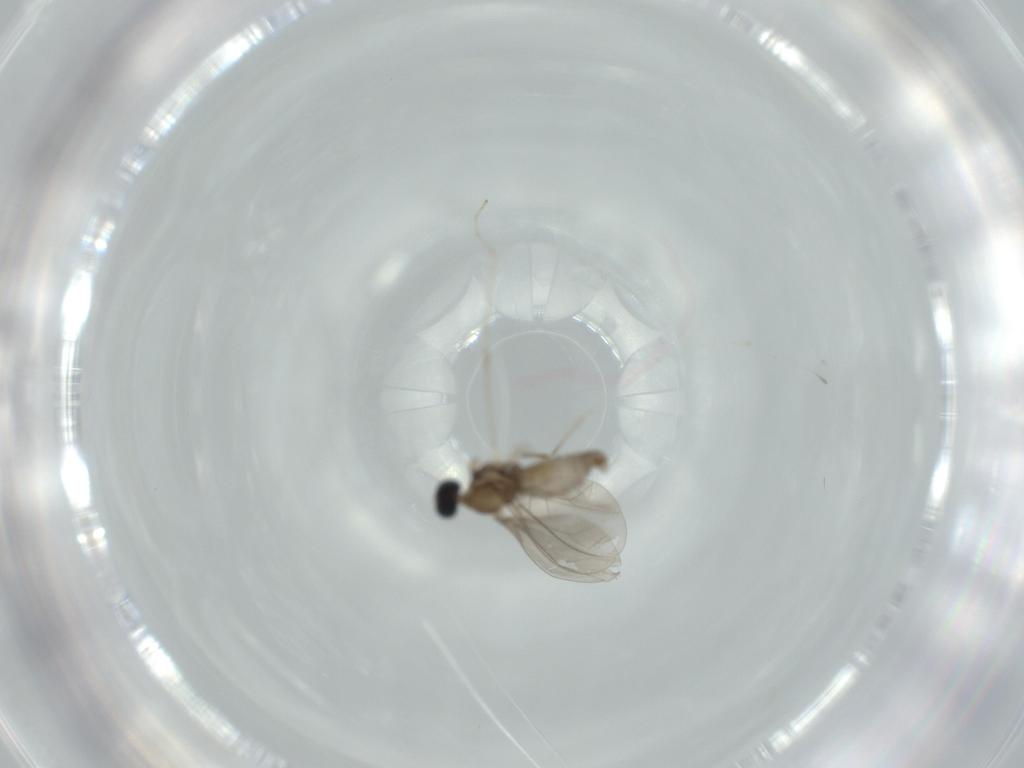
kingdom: Animalia
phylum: Arthropoda
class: Insecta
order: Diptera
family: Cecidomyiidae
